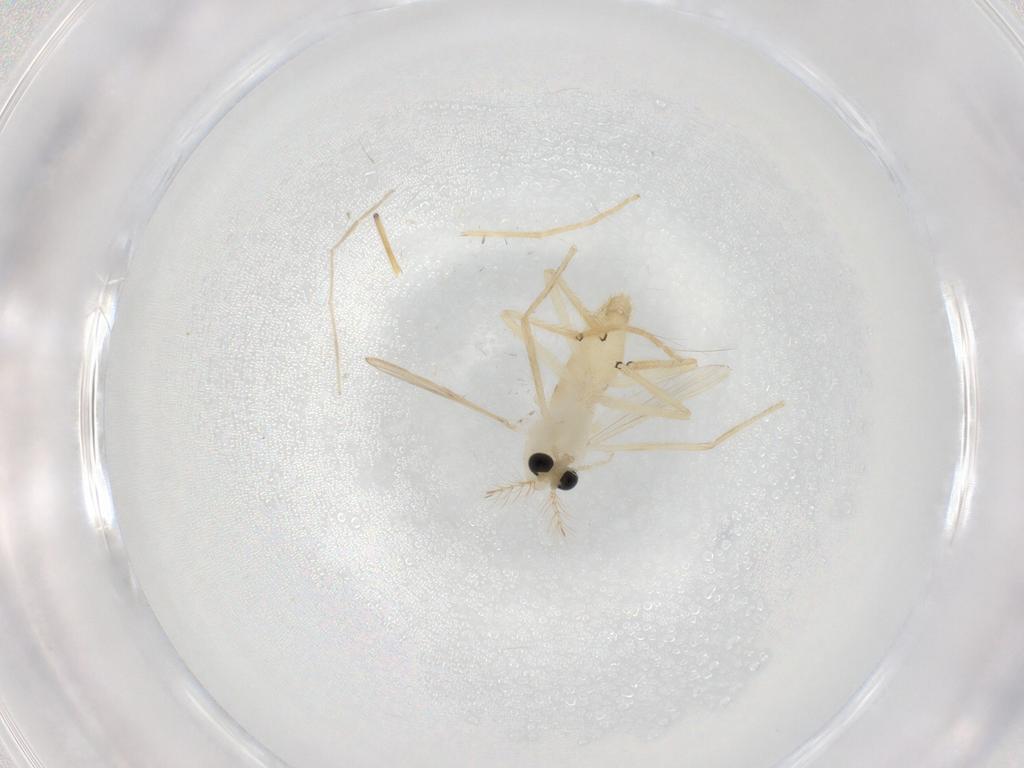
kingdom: Animalia
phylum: Arthropoda
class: Insecta
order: Diptera
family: Chironomidae
